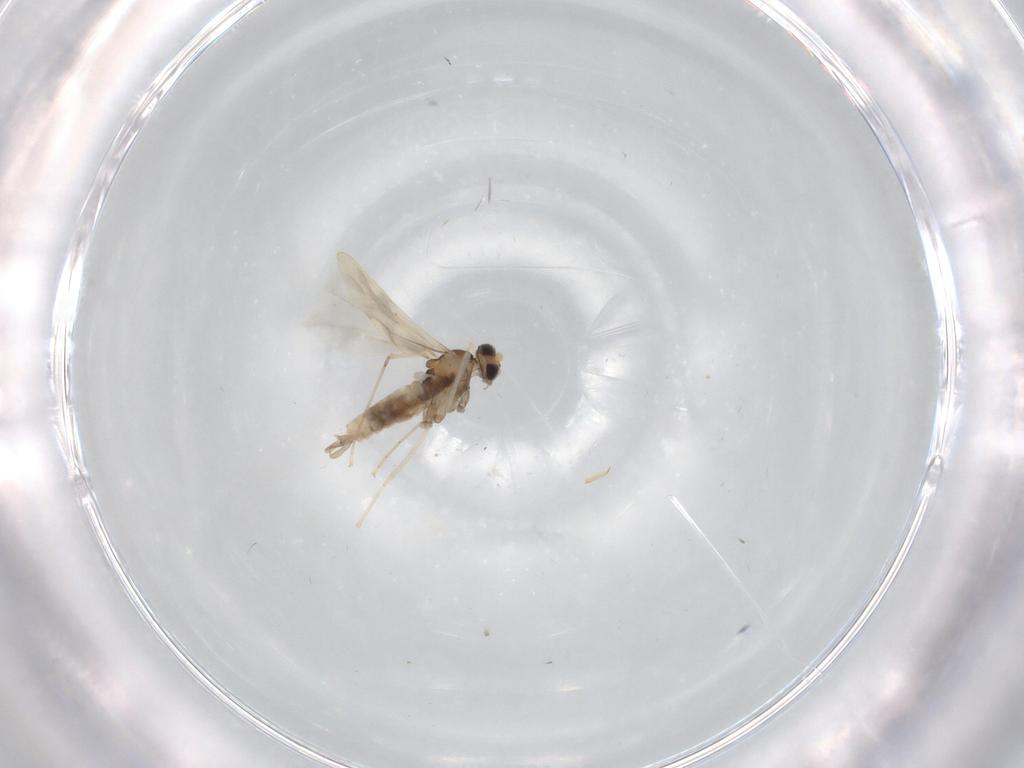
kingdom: Animalia
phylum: Arthropoda
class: Insecta
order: Diptera
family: Cecidomyiidae
